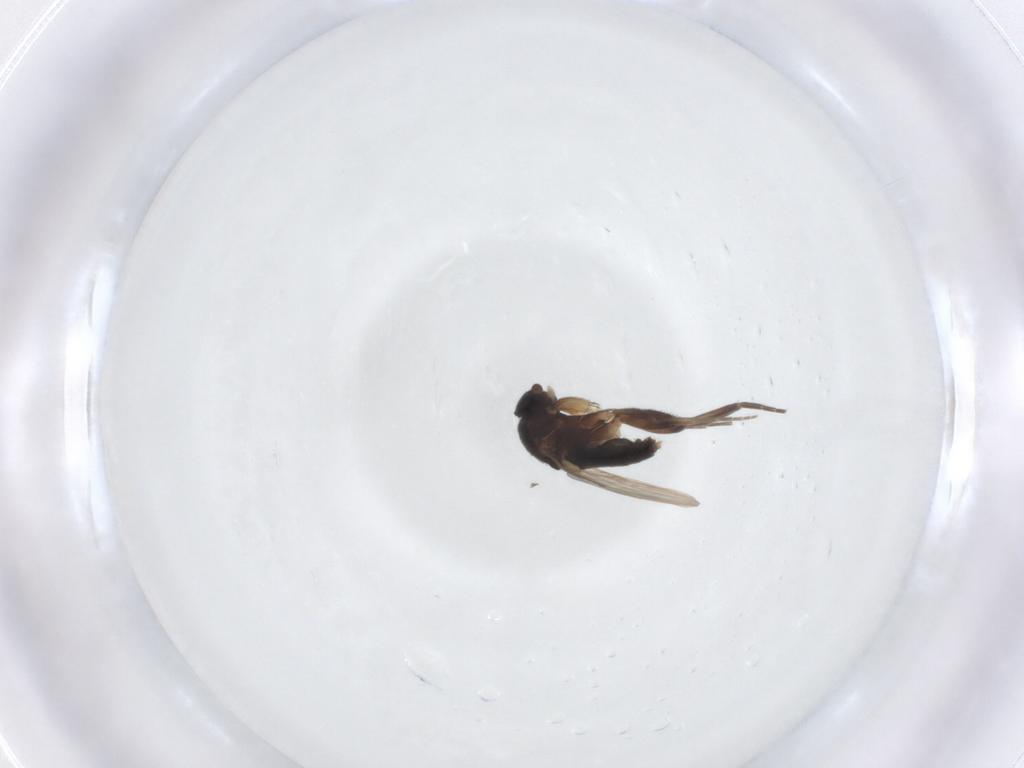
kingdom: Animalia
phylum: Arthropoda
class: Insecta
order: Diptera
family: Phoridae
